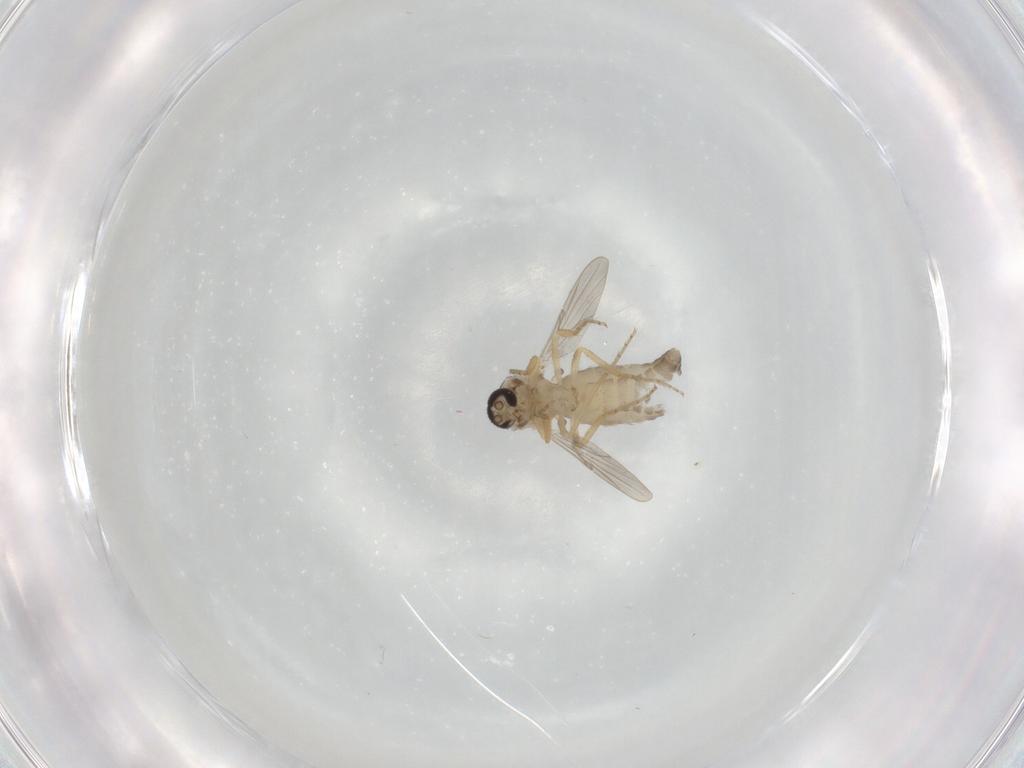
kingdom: Animalia
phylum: Arthropoda
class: Insecta
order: Diptera
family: Ceratopogonidae
